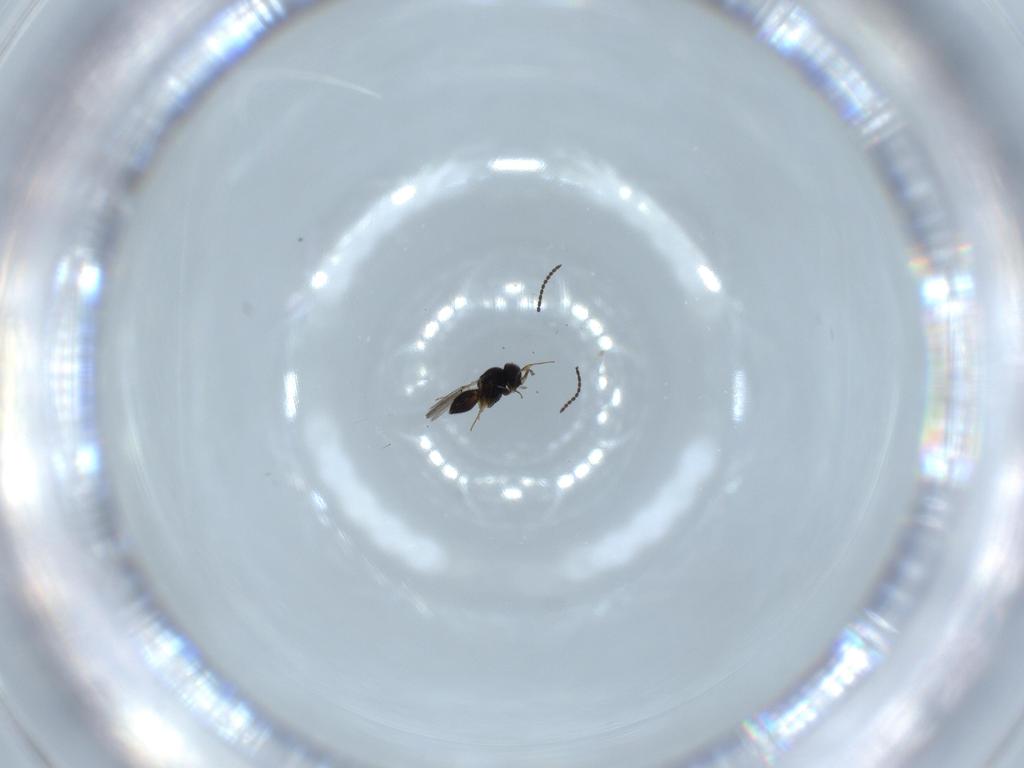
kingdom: Animalia
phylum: Arthropoda
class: Insecta
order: Hymenoptera
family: Scelionidae
